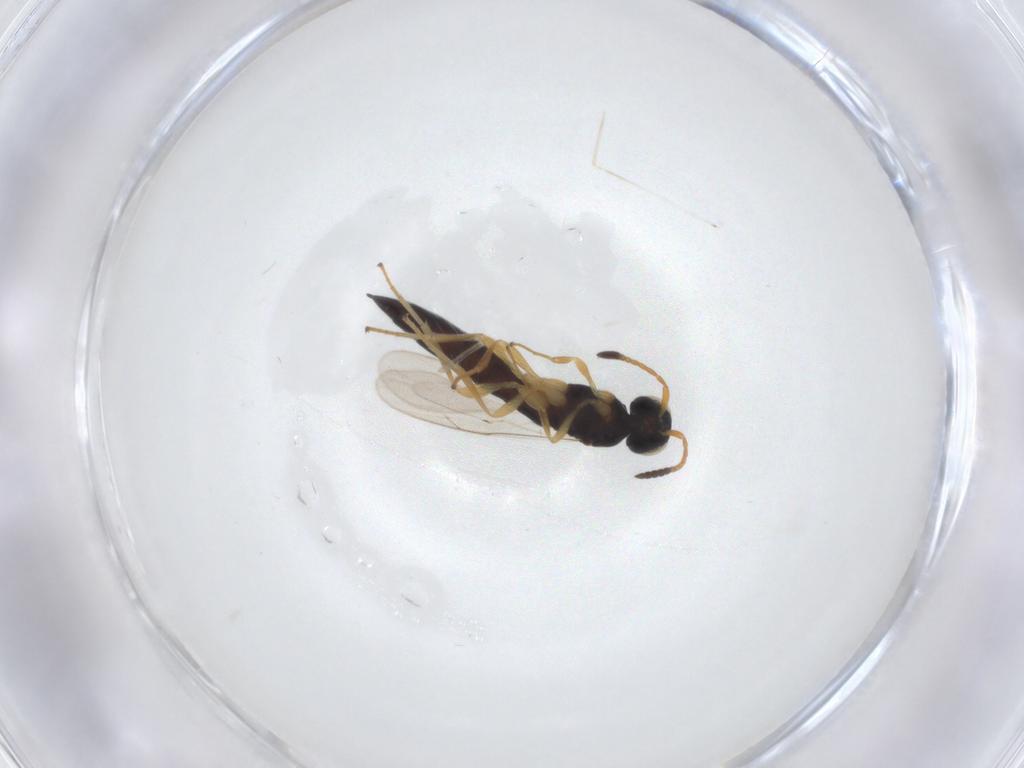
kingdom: Animalia
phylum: Arthropoda
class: Insecta
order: Hymenoptera
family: Scelionidae
